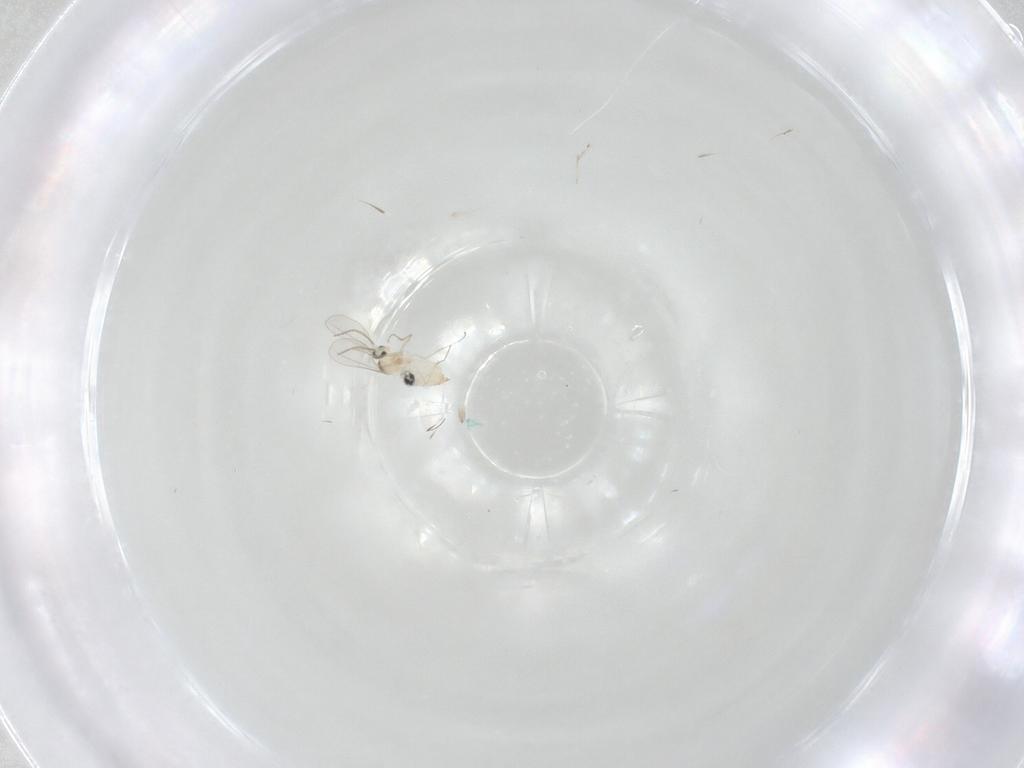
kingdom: Animalia
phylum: Arthropoda
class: Insecta
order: Diptera
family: Cecidomyiidae
